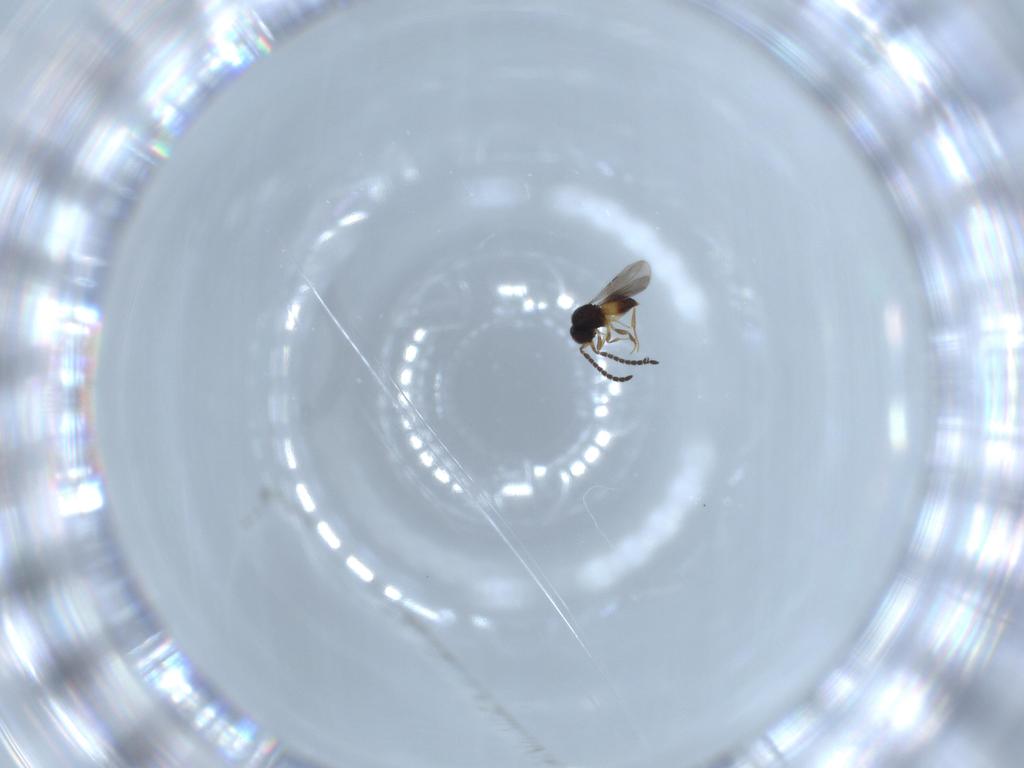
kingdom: Animalia
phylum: Arthropoda
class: Insecta
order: Hymenoptera
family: Formicidae
